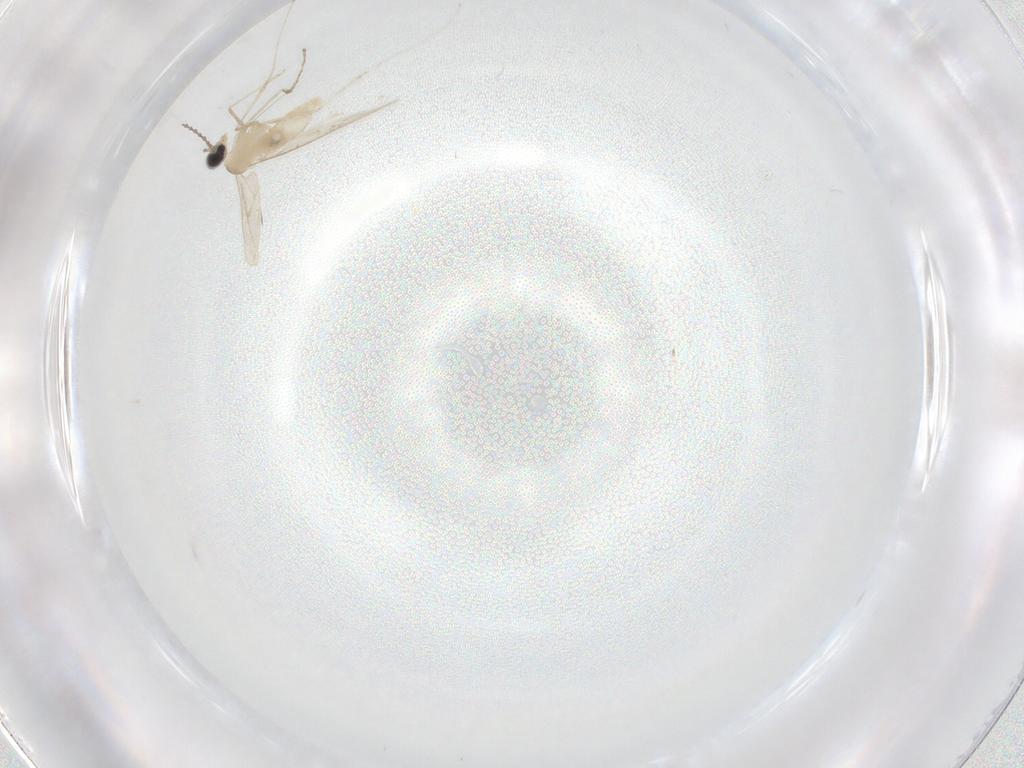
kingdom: Animalia
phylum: Arthropoda
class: Insecta
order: Diptera
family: Cecidomyiidae
